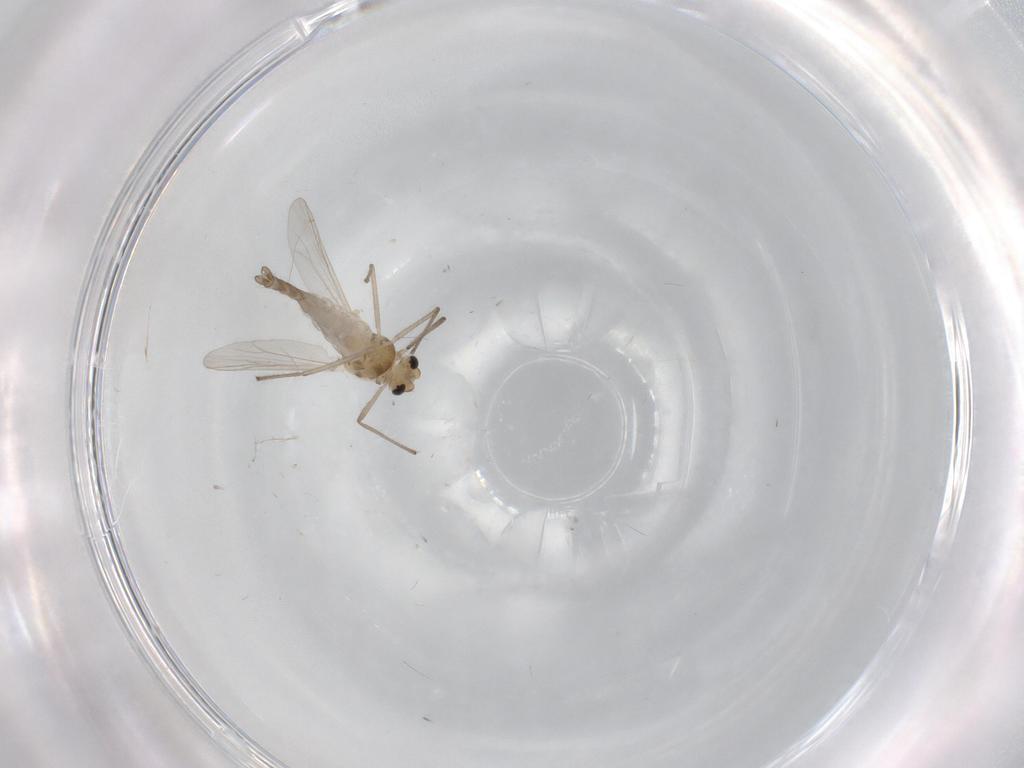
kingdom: Animalia
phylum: Arthropoda
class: Insecta
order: Diptera
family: Chironomidae
